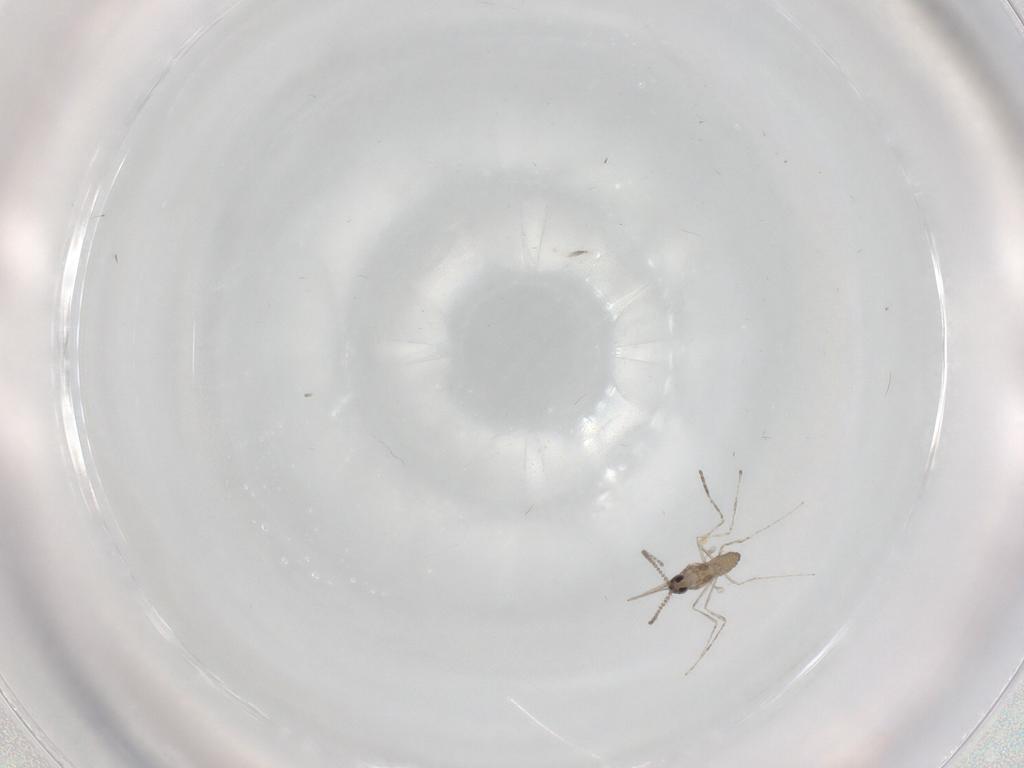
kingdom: Animalia
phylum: Arthropoda
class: Insecta
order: Diptera
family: Cecidomyiidae
